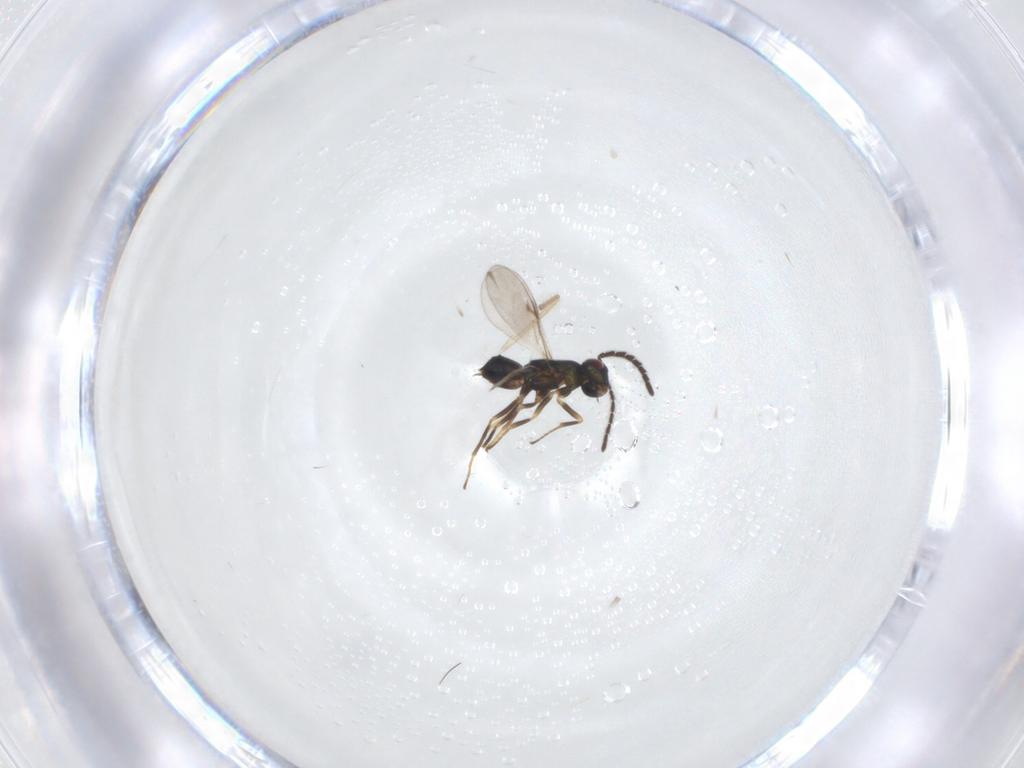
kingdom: Animalia
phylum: Arthropoda
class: Insecta
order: Hymenoptera
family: Encyrtidae
